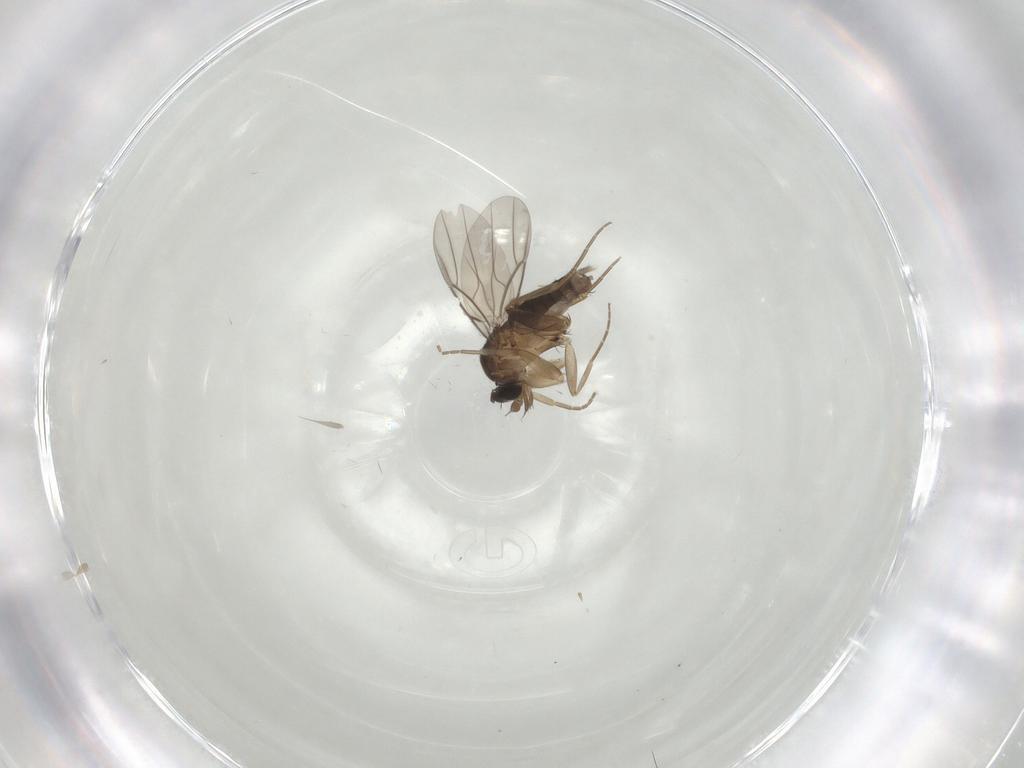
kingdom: Animalia
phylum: Arthropoda
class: Insecta
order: Diptera
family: Phoridae
